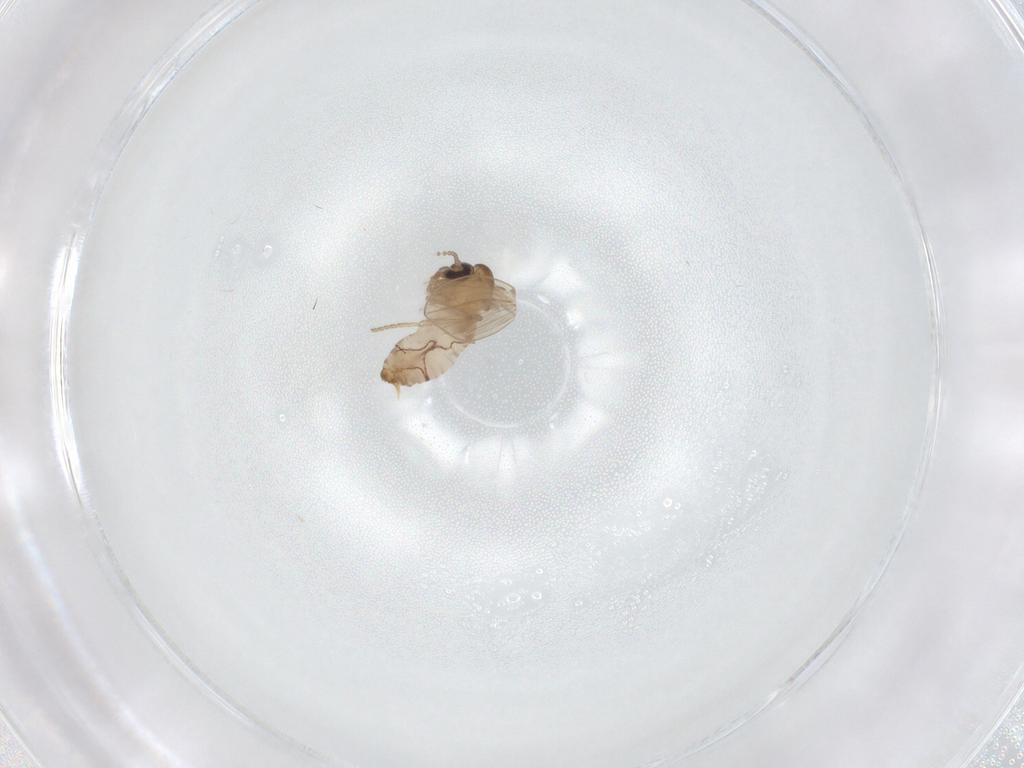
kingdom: Animalia
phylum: Arthropoda
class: Insecta
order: Diptera
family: Psychodidae
